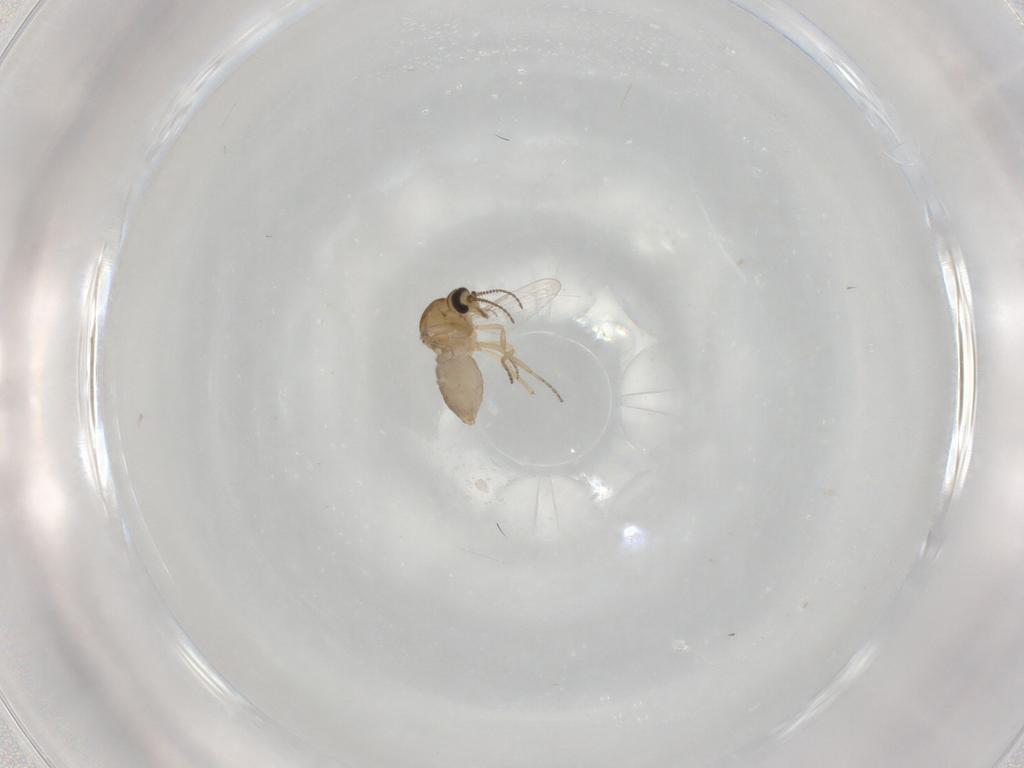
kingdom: Animalia
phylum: Arthropoda
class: Insecta
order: Diptera
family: Ceratopogonidae
